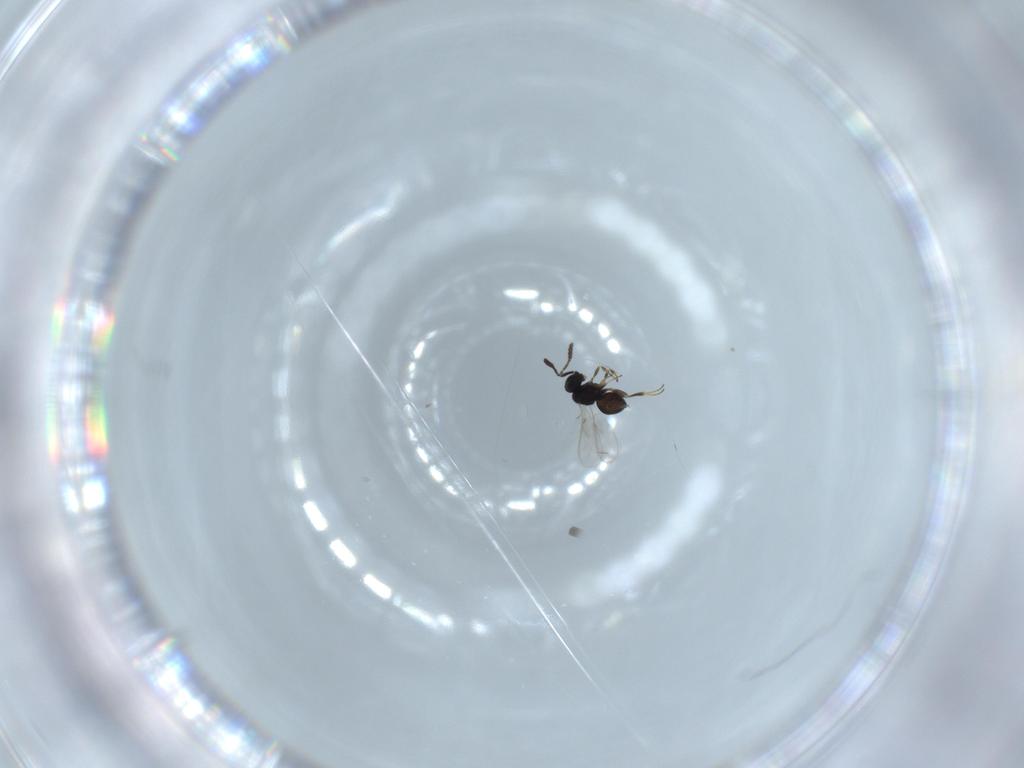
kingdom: Animalia
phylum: Arthropoda
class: Insecta
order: Hymenoptera
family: Scelionidae
